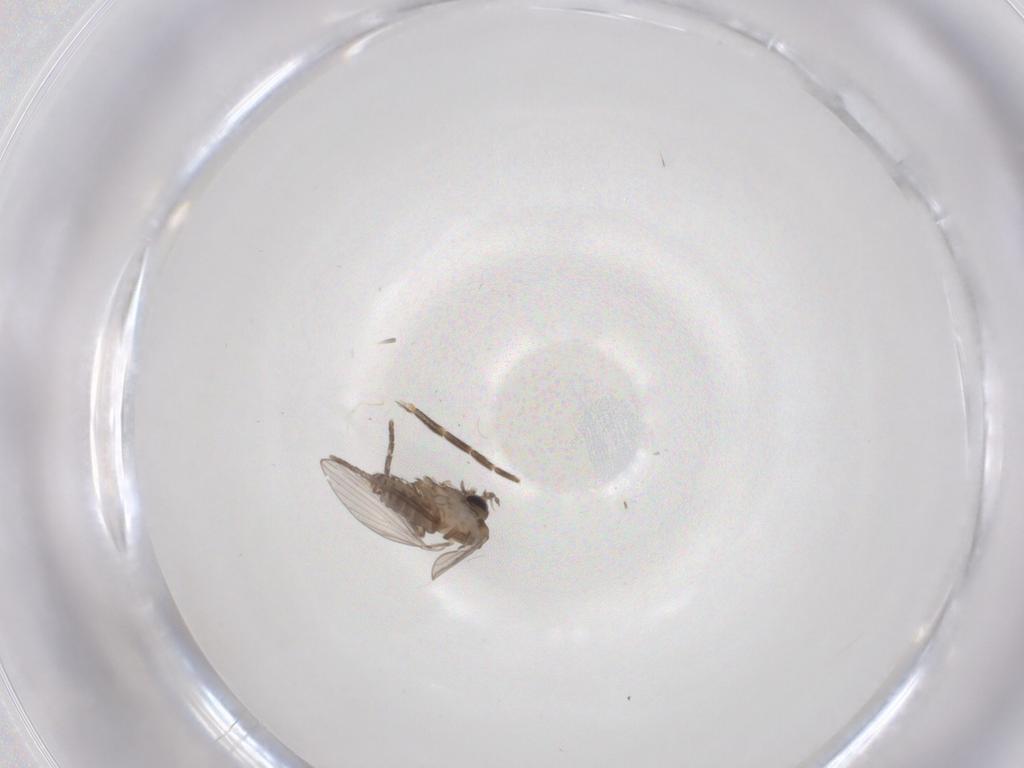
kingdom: Animalia
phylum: Arthropoda
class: Insecta
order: Diptera
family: Psychodidae
